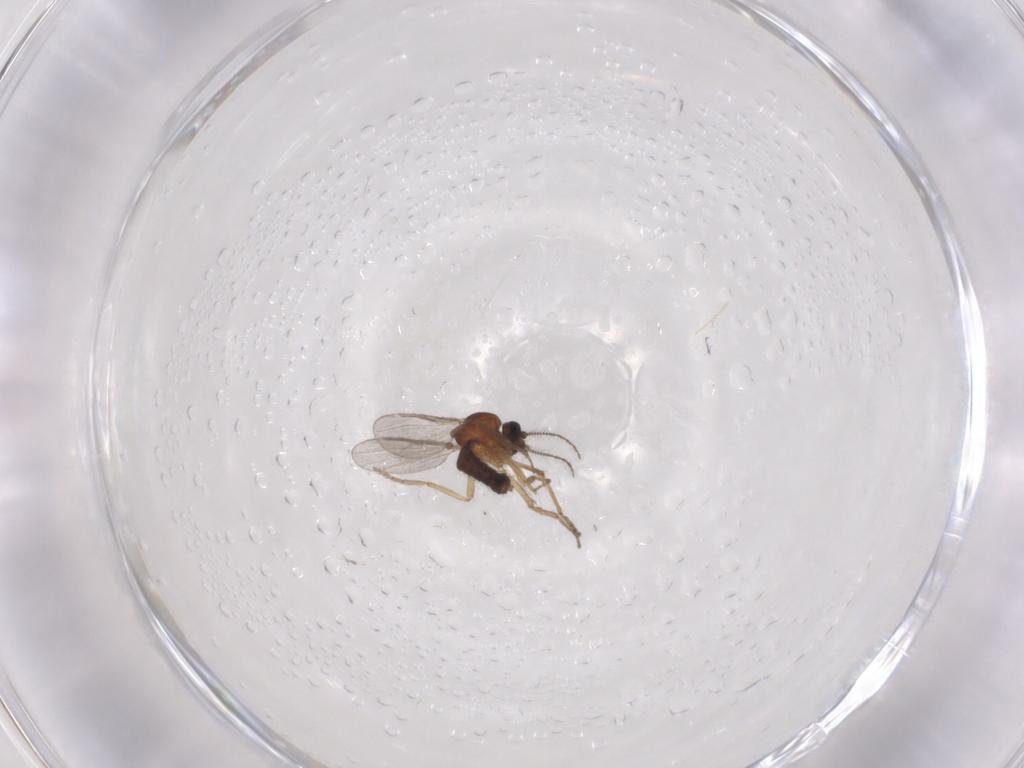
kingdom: Animalia
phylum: Arthropoda
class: Insecta
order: Diptera
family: Ceratopogonidae
